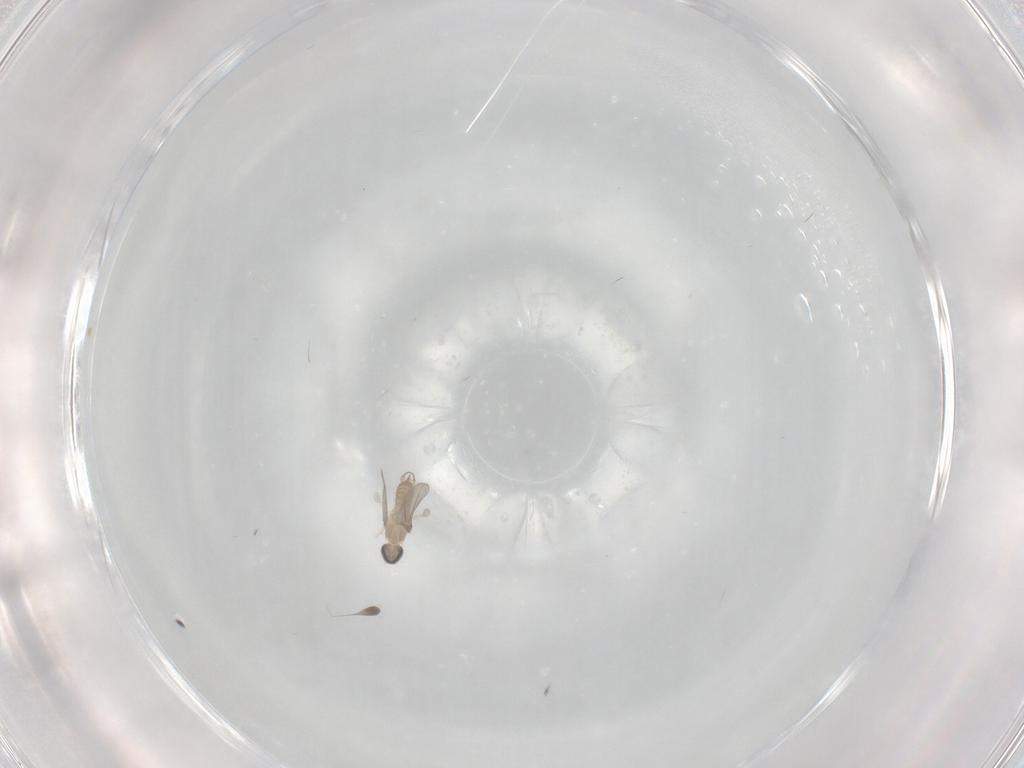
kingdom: Animalia
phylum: Arthropoda
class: Insecta
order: Diptera
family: Cecidomyiidae
